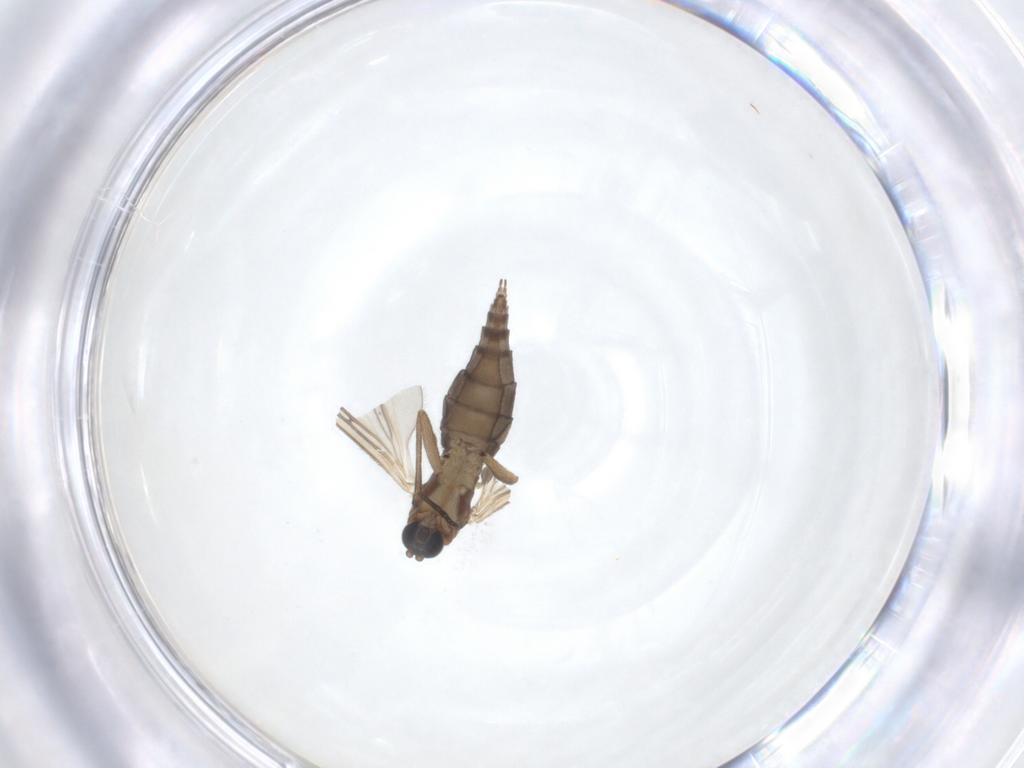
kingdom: Animalia
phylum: Arthropoda
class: Insecta
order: Diptera
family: Sciaridae
